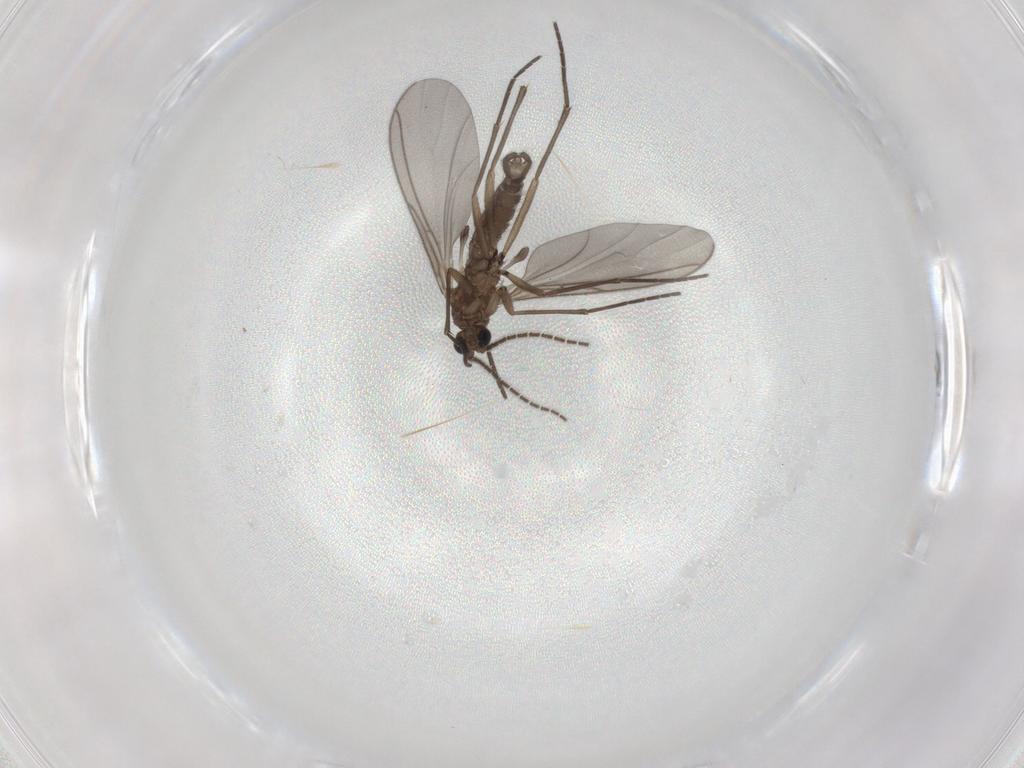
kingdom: Animalia
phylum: Arthropoda
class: Insecta
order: Diptera
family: Sciaridae
